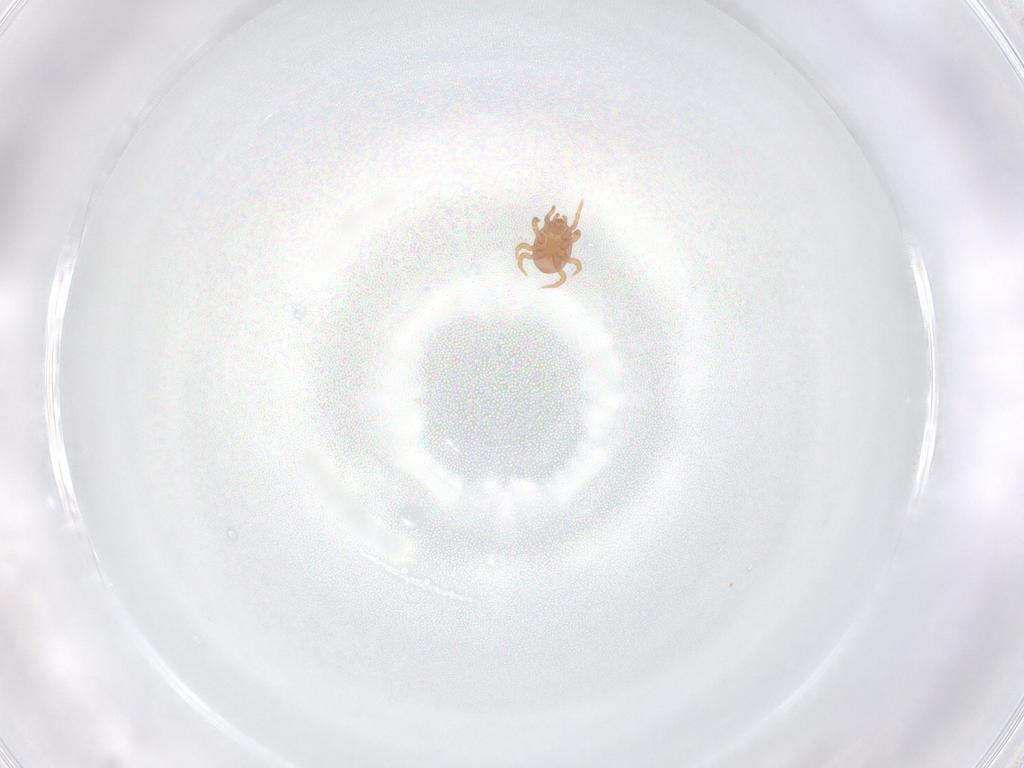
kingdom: Animalia
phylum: Arthropoda
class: Arachnida
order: Mesostigmata
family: Eviphididae
